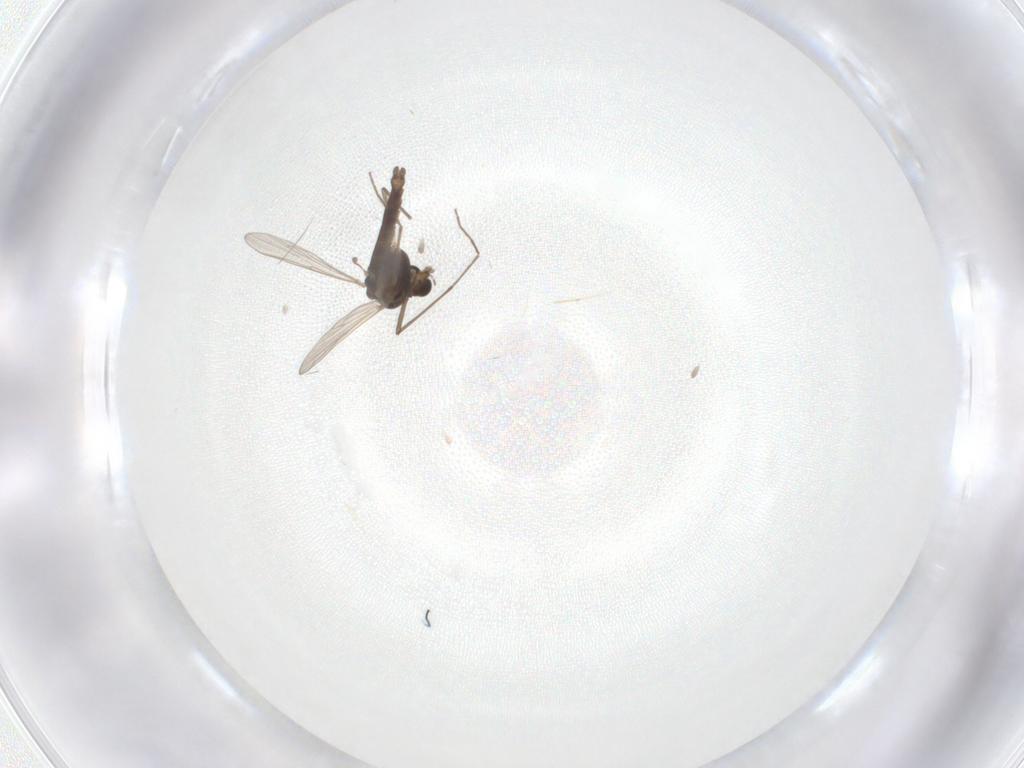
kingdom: Animalia
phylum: Arthropoda
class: Insecta
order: Diptera
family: Chironomidae
